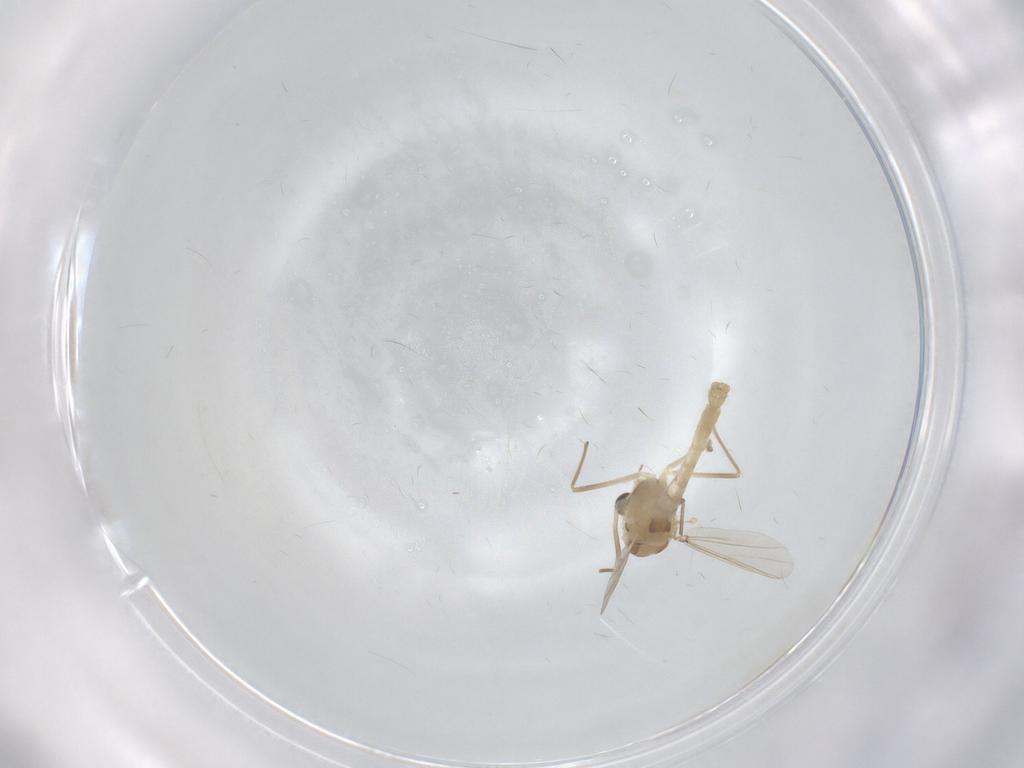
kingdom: Animalia
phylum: Arthropoda
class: Insecta
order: Diptera
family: Chironomidae
